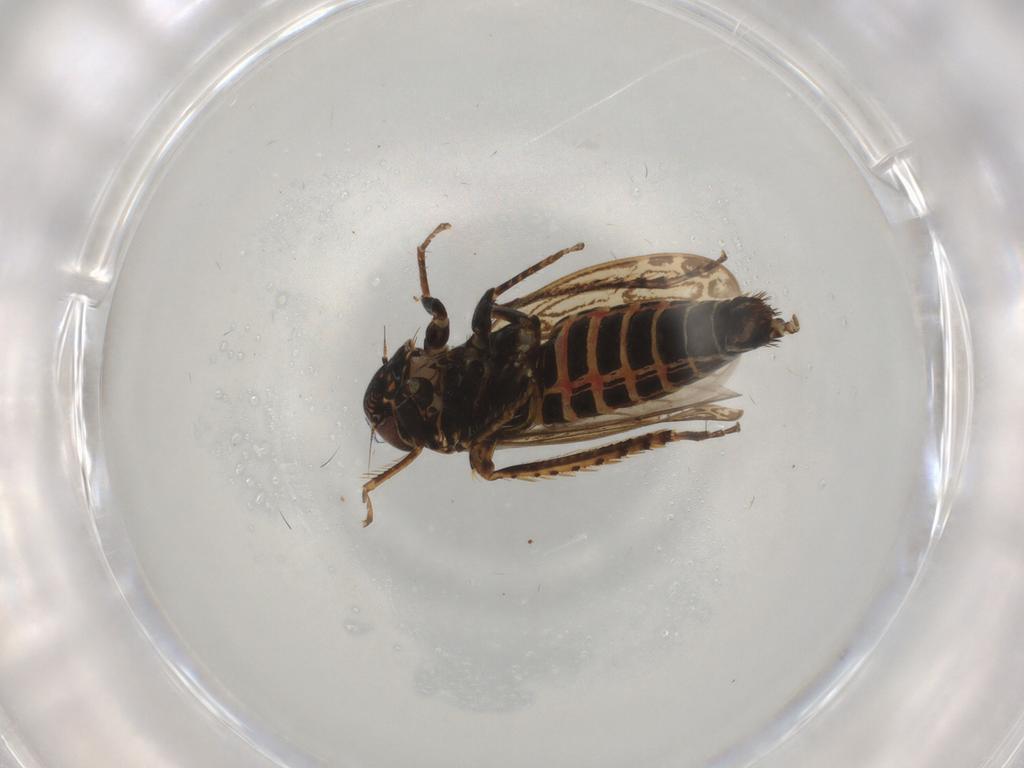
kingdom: Animalia
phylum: Arthropoda
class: Insecta
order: Hemiptera
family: Cicadellidae
